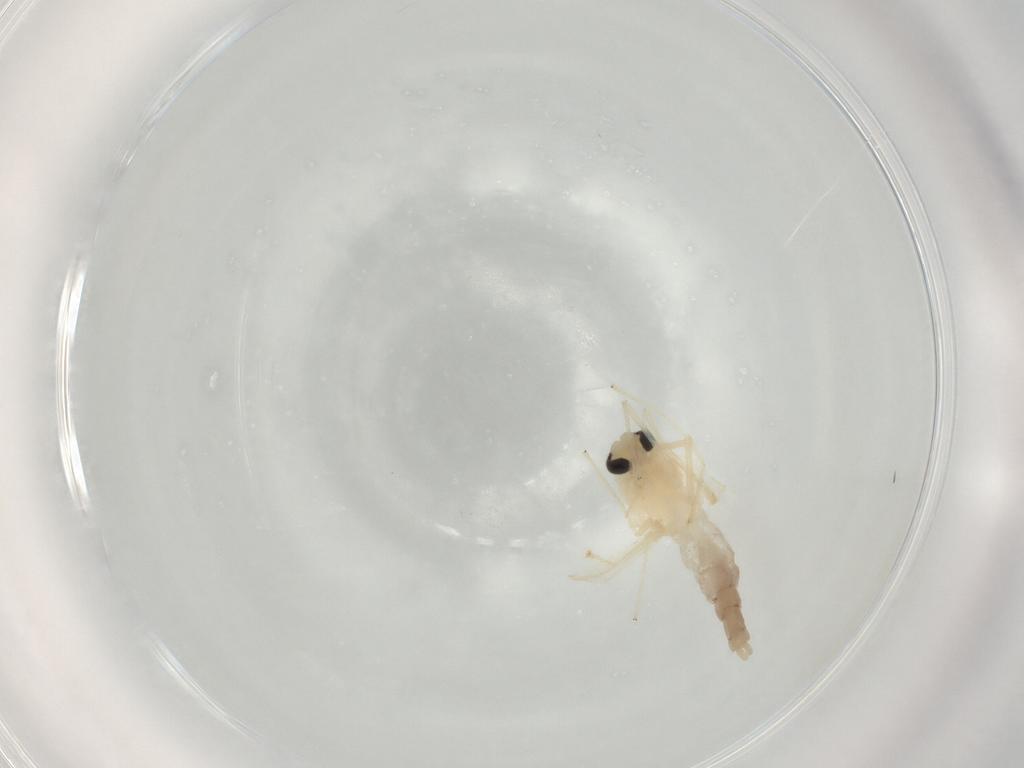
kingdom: Animalia
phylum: Arthropoda
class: Insecta
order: Diptera
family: Chironomidae
